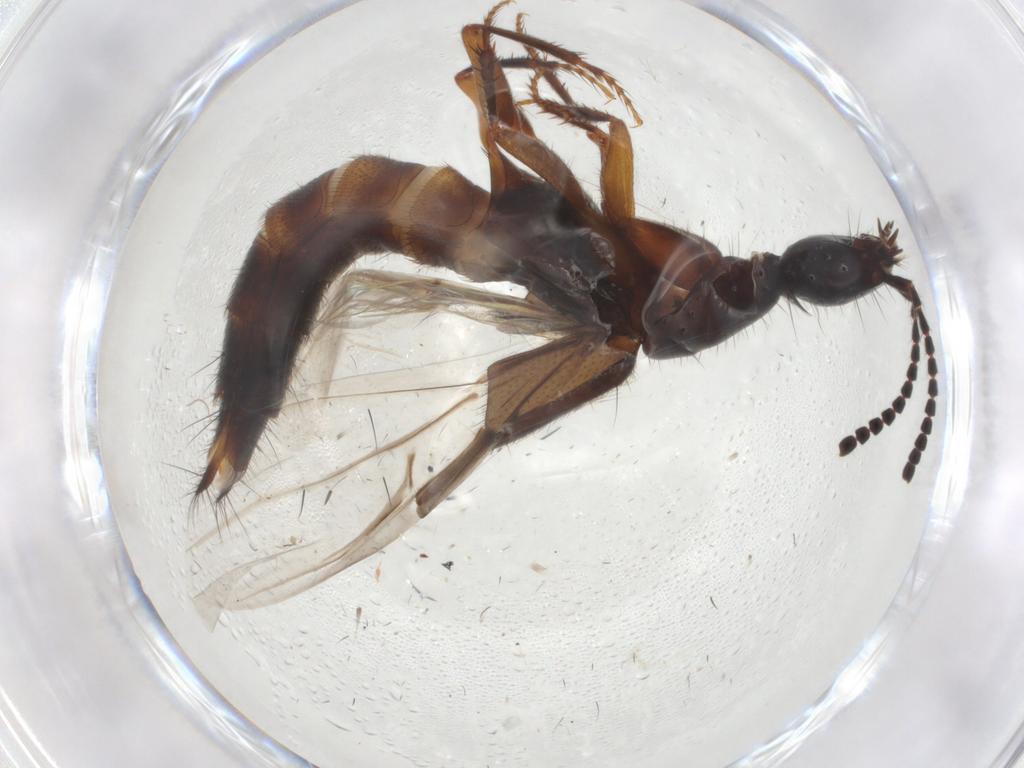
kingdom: Animalia
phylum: Arthropoda
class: Insecta
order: Coleoptera
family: Staphylinidae
